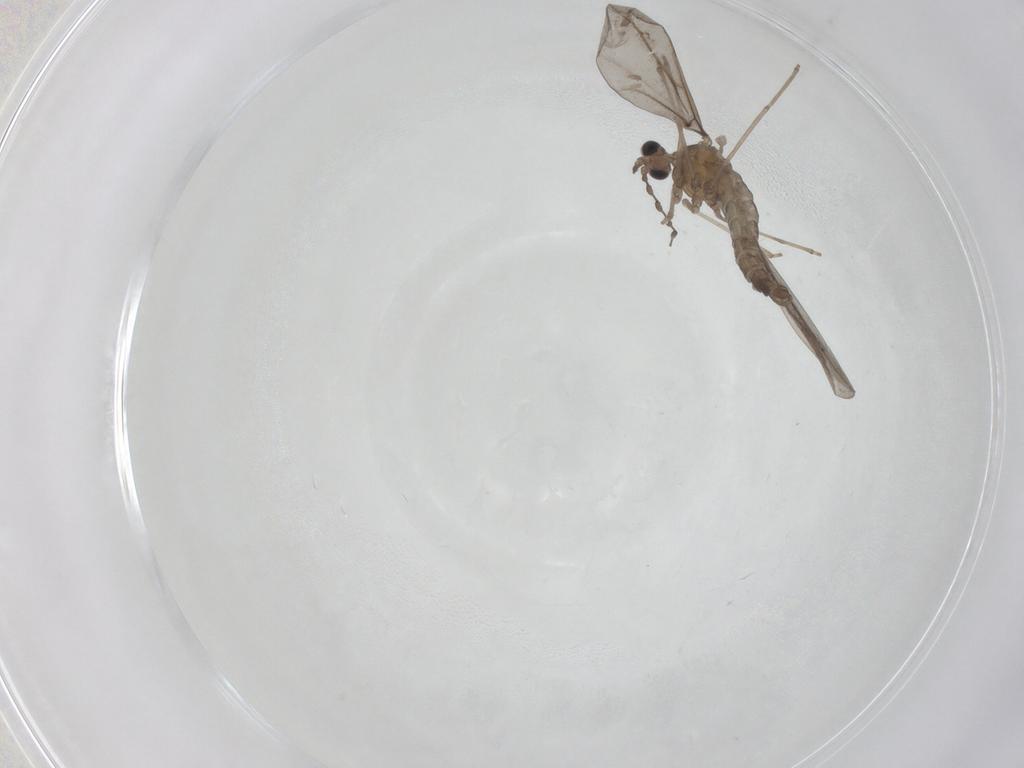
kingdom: Animalia
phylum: Arthropoda
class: Insecta
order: Diptera
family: Cecidomyiidae
